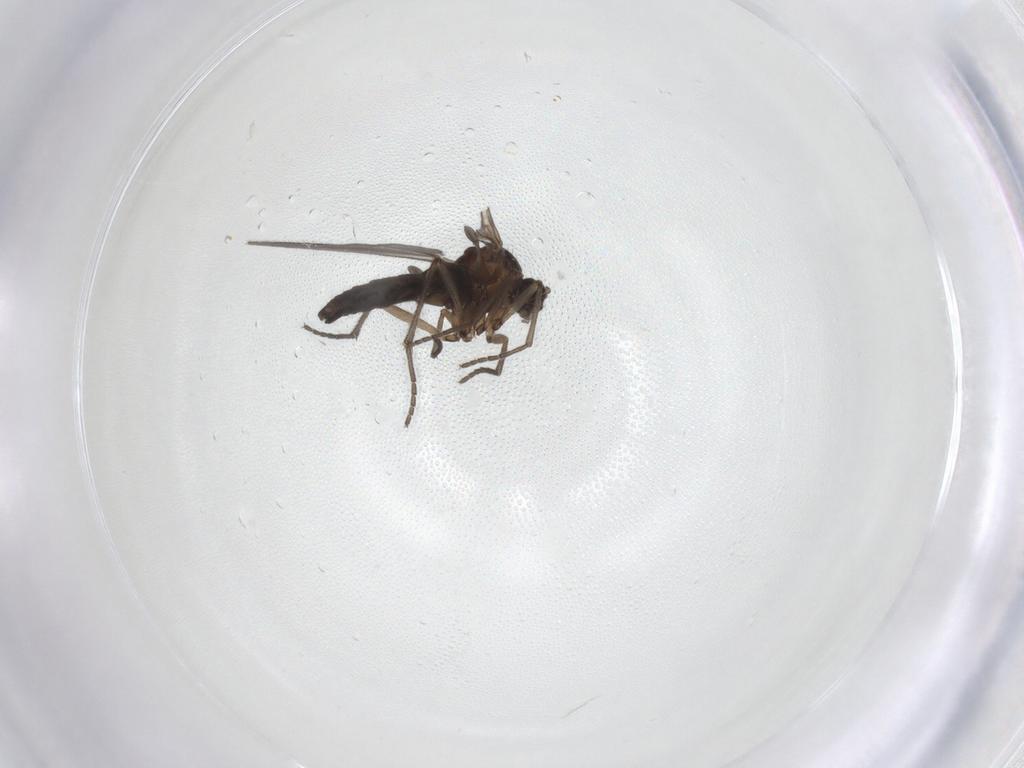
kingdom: Animalia
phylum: Arthropoda
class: Insecta
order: Diptera
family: Sciaridae
